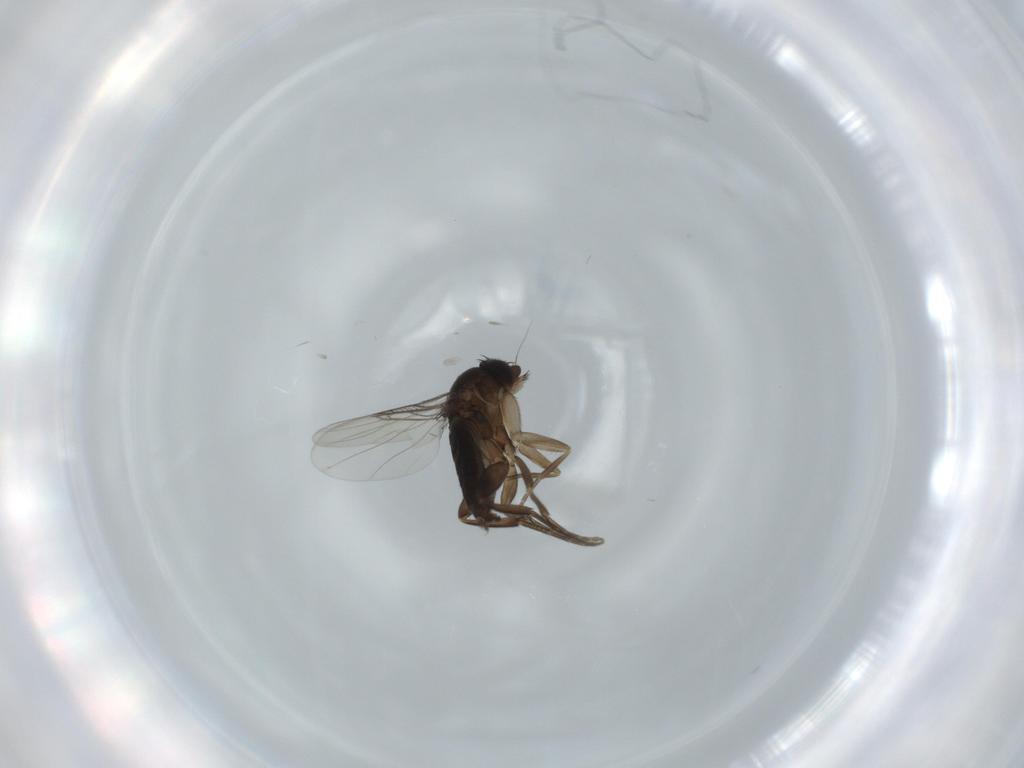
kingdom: Animalia
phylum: Arthropoda
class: Insecta
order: Diptera
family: Phoridae
